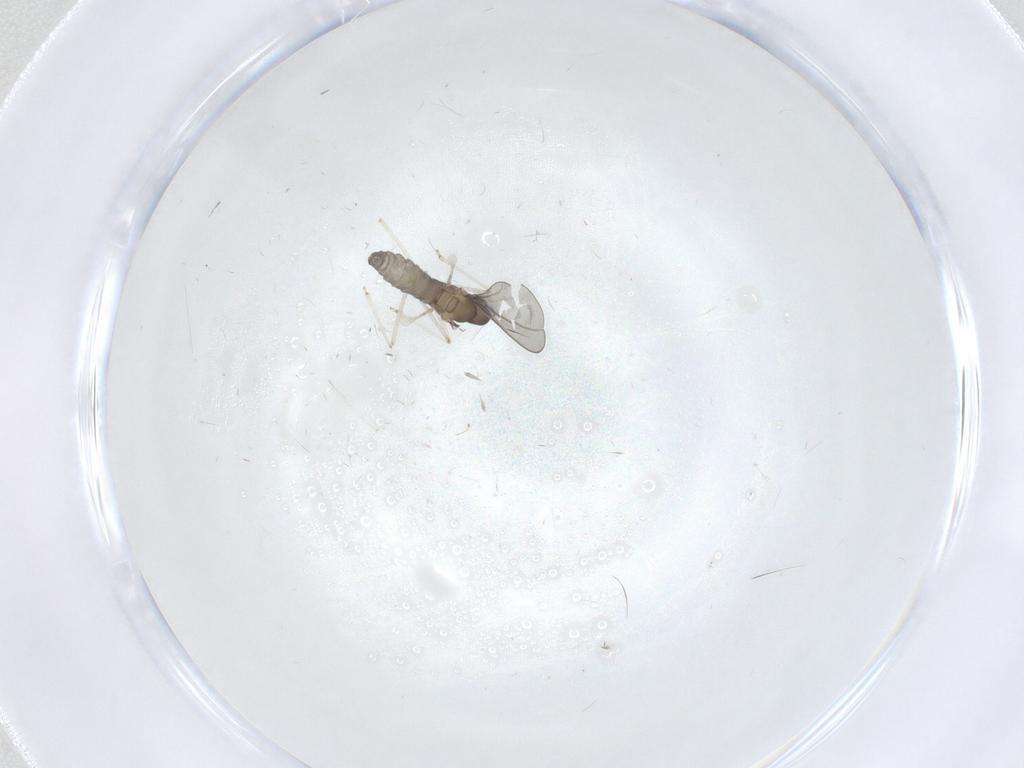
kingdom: Animalia
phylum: Arthropoda
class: Insecta
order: Diptera
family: Cecidomyiidae
